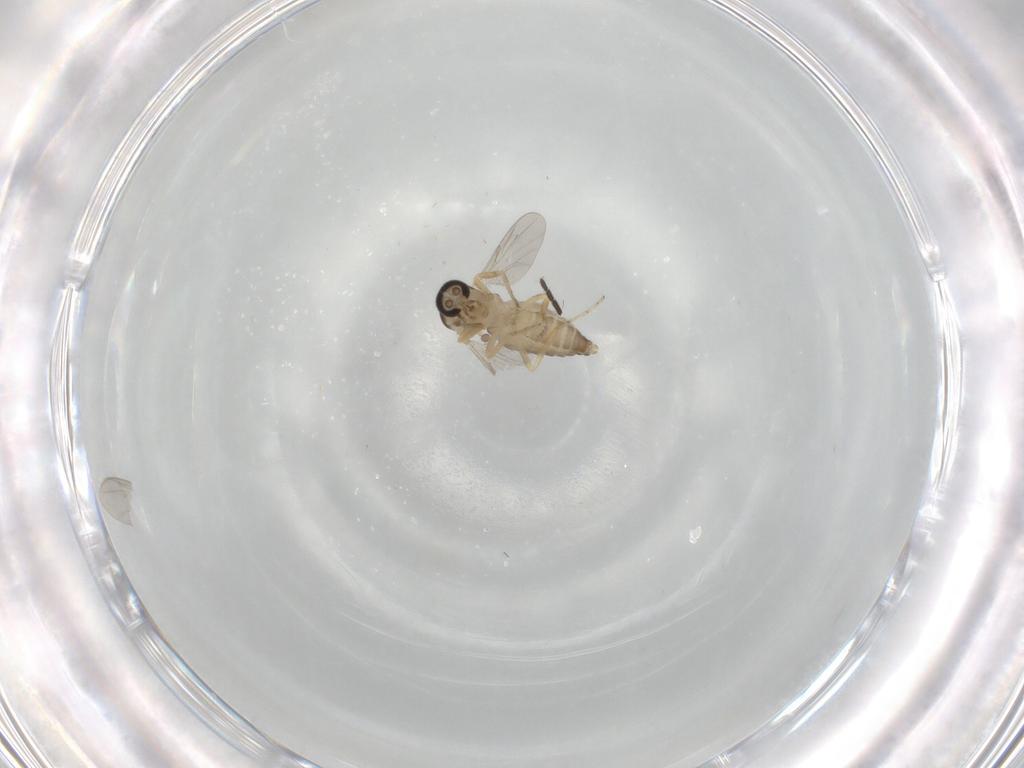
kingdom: Animalia
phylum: Arthropoda
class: Insecta
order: Diptera
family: Ceratopogonidae
